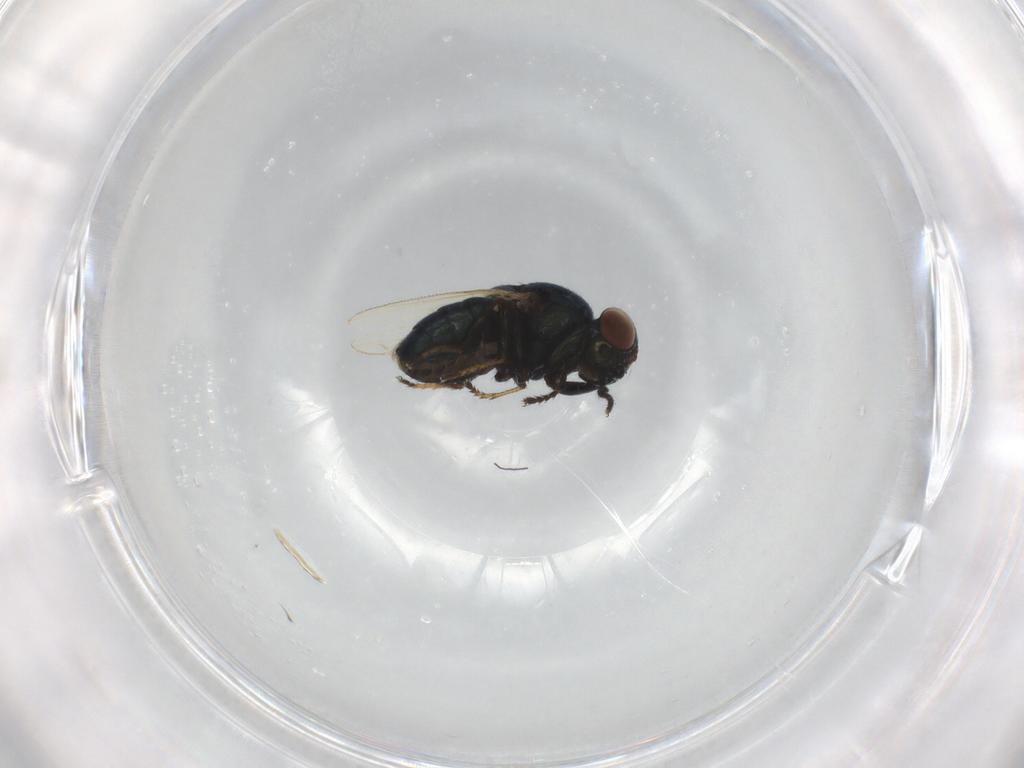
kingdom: Animalia
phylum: Arthropoda
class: Insecta
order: Diptera
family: Ephydridae
